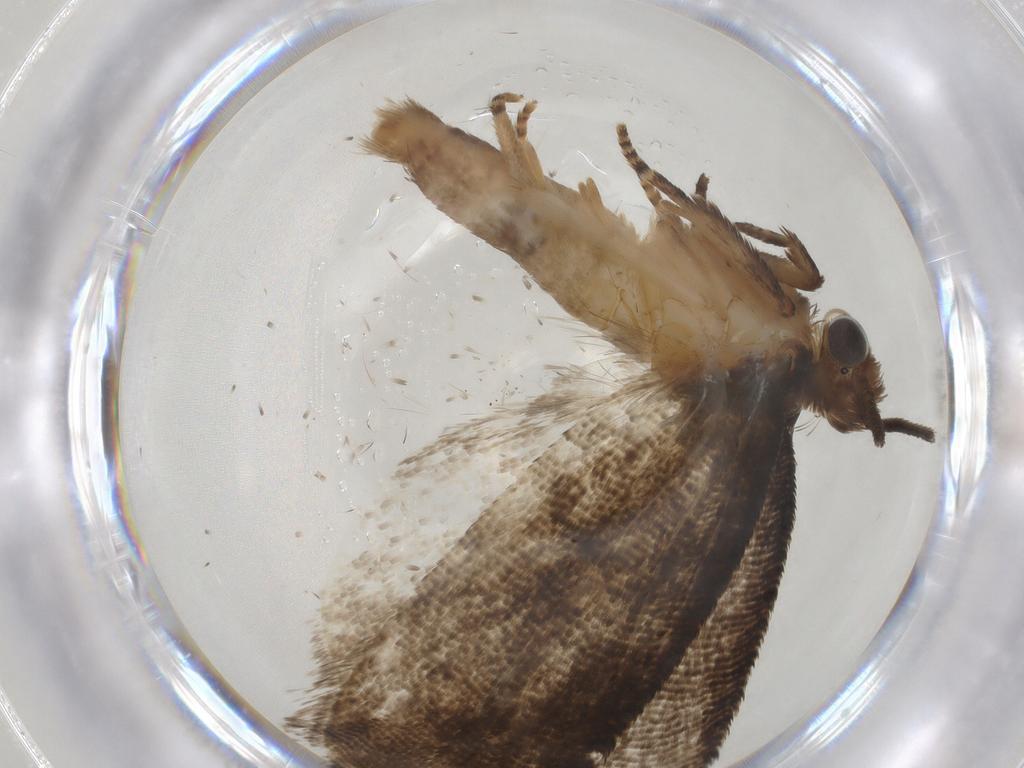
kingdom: Animalia
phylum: Arthropoda
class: Insecta
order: Lepidoptera
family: Tortricidae
